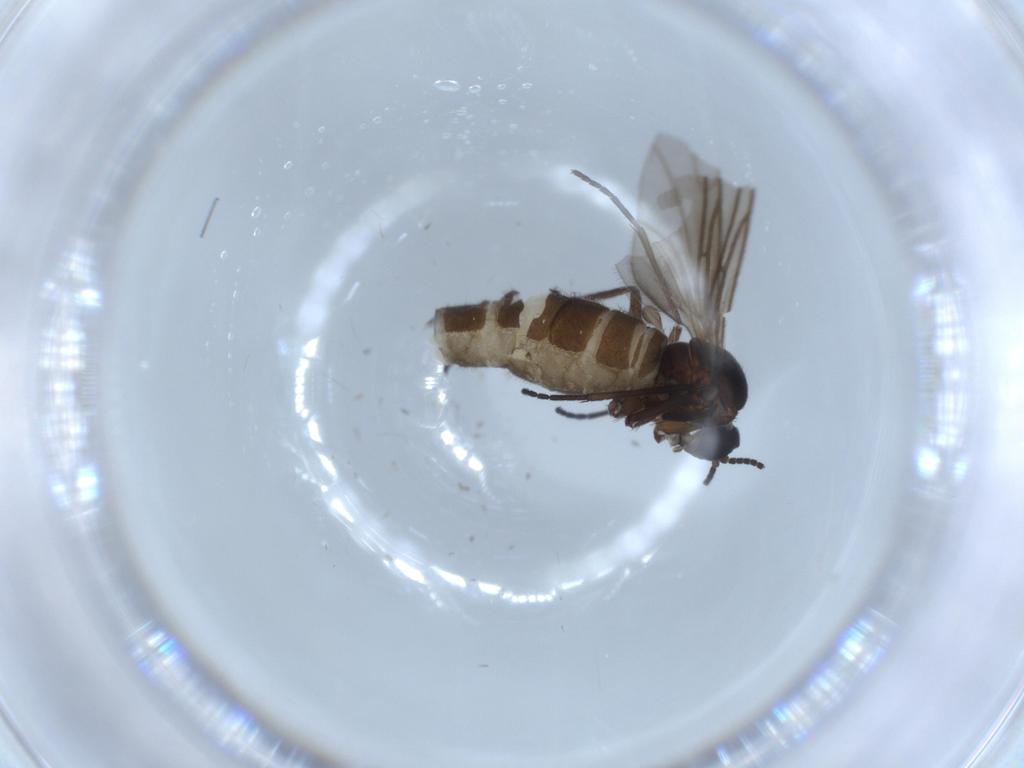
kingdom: Animalia
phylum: Arthropoda
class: Insecta
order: Diptera
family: Sciaridae
